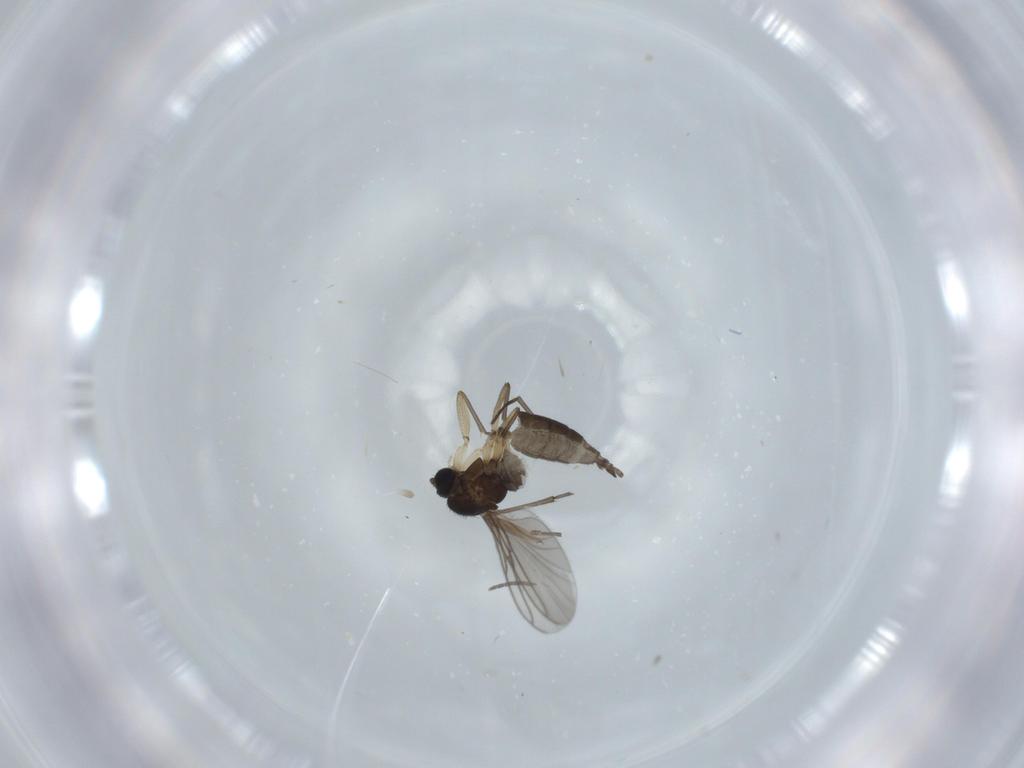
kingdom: Animalia
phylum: Arthropoda
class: Insecta
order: Diptera
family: Sciaridae
